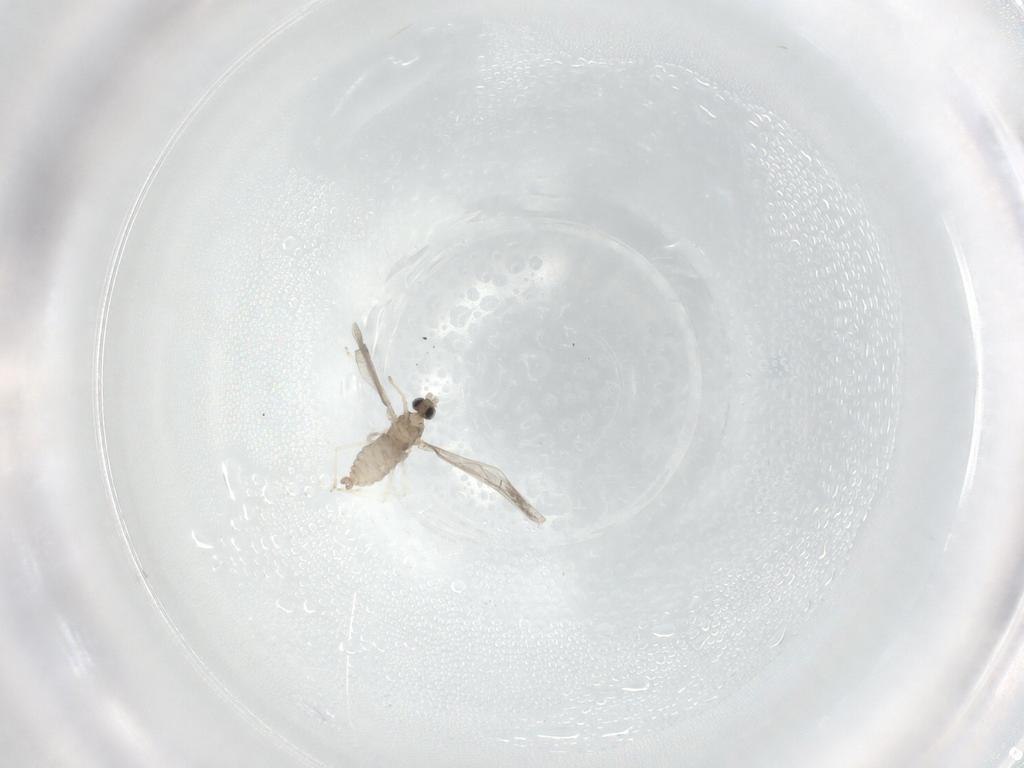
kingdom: Animalia
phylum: Arthropoda
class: Insecta
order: Diptera
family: Cecidomyiidae
